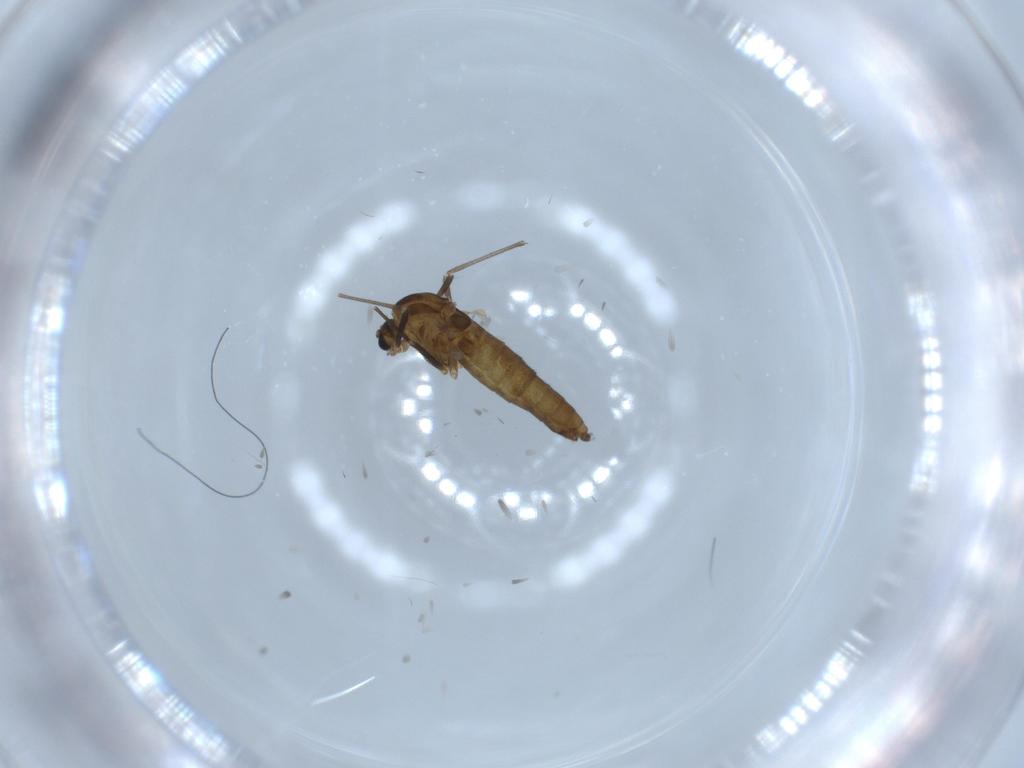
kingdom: Animalia
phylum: Arthropoda
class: Insecta
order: Diptera
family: Chironomidae
